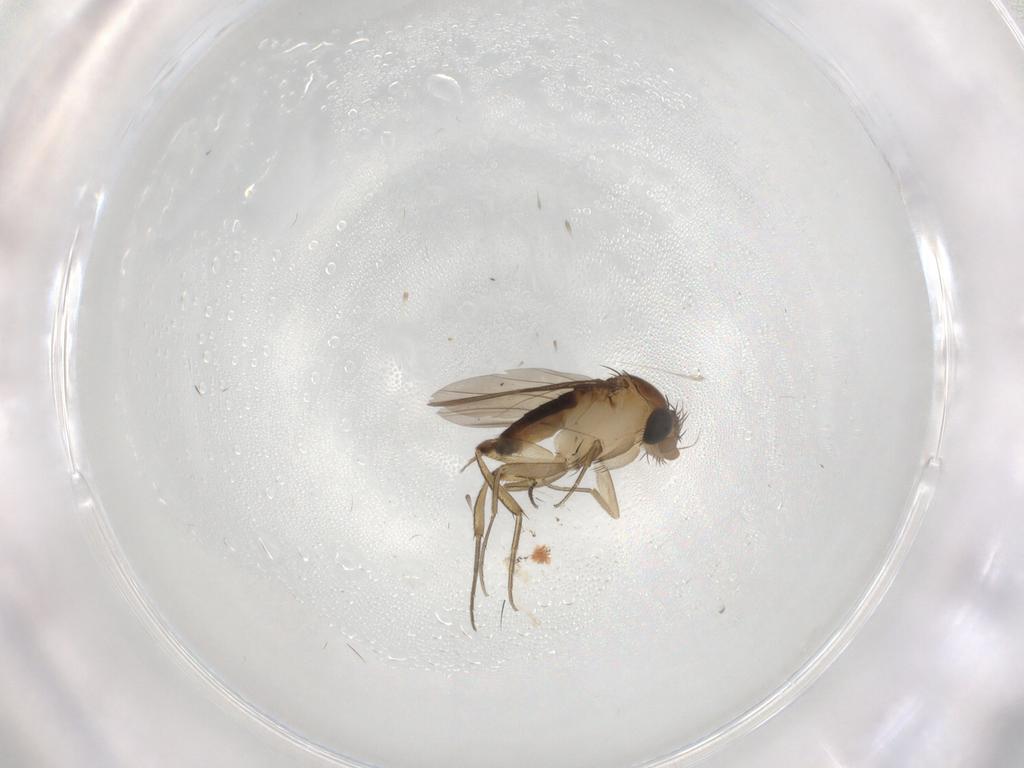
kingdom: Animalia
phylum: Arthropoda
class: Insecta
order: Diptera
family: Phoridae
